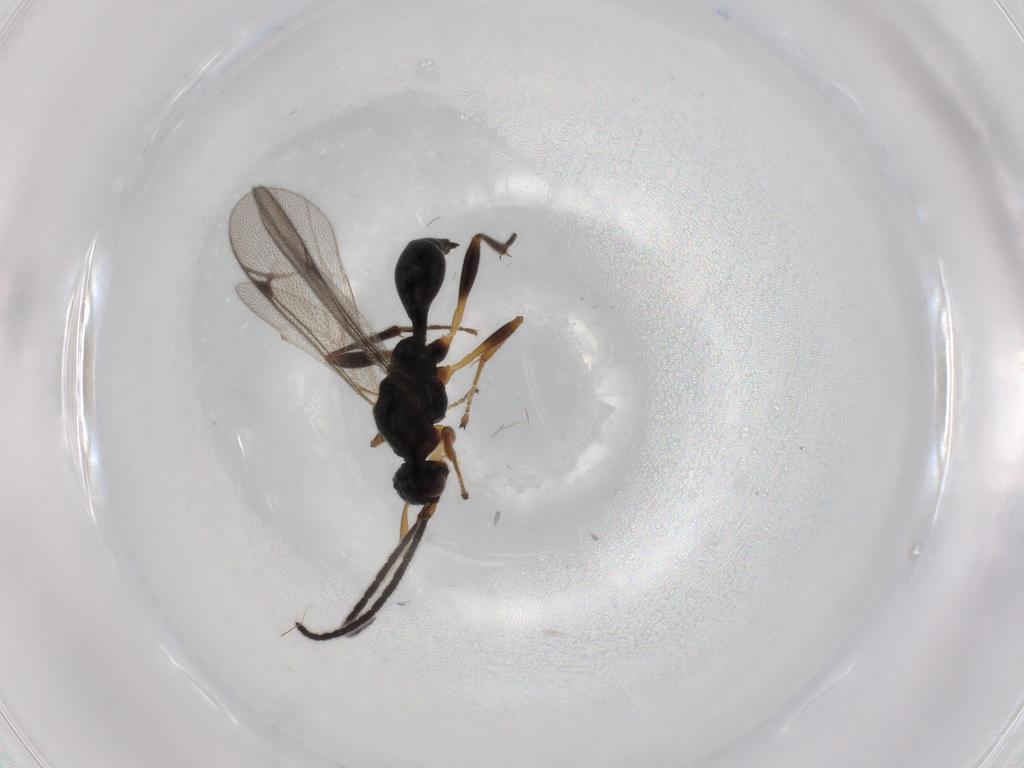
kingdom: Animalia
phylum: Arthropoda
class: Insecta
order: Hymenoptera
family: Proctotrupidae
